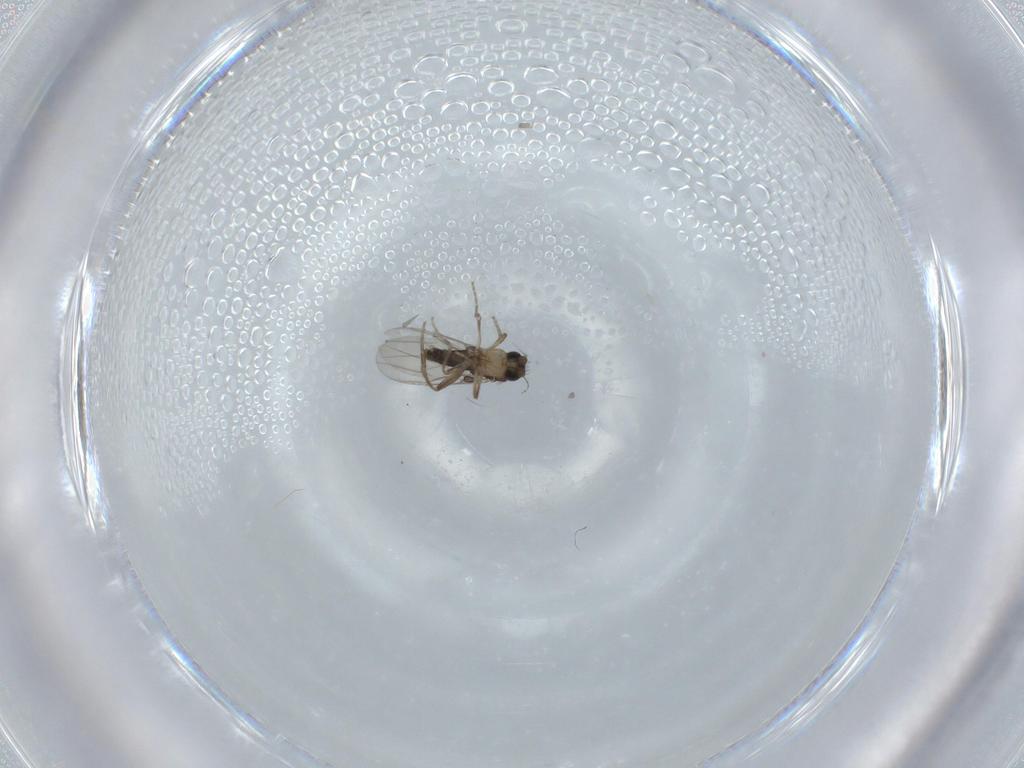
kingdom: Animalia
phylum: Arthropoda
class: Insecta
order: Diptera
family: Phoridae
